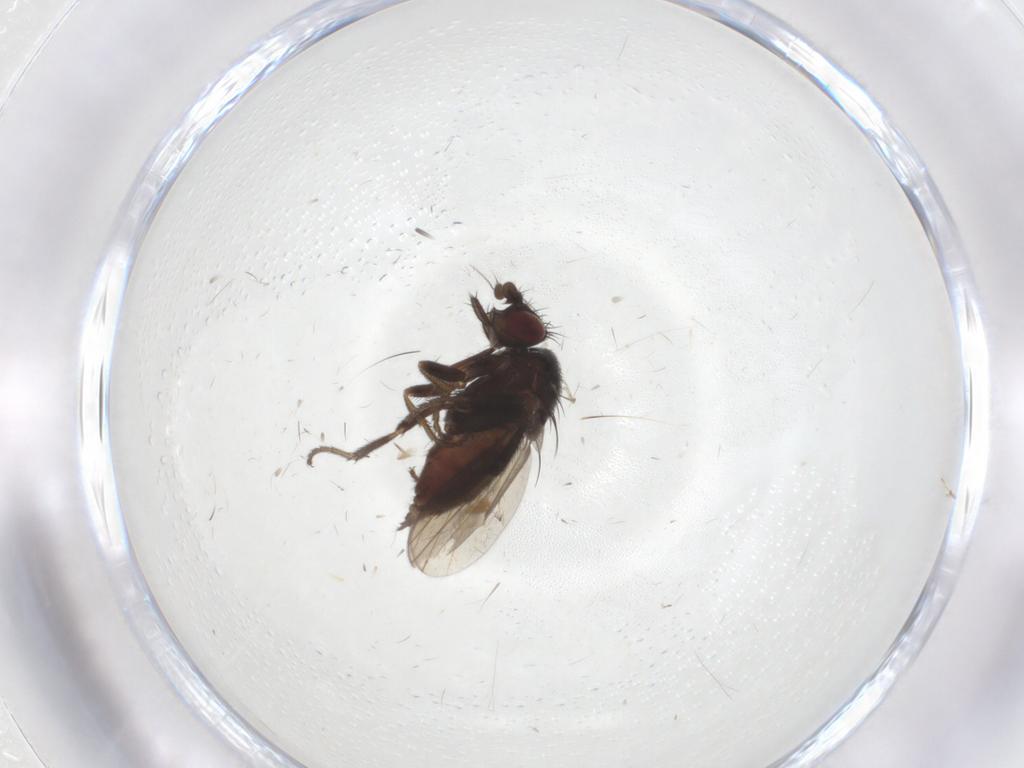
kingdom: Animalia
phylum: Arthropoda
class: Insecta
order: Diptera
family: Milichiidae
